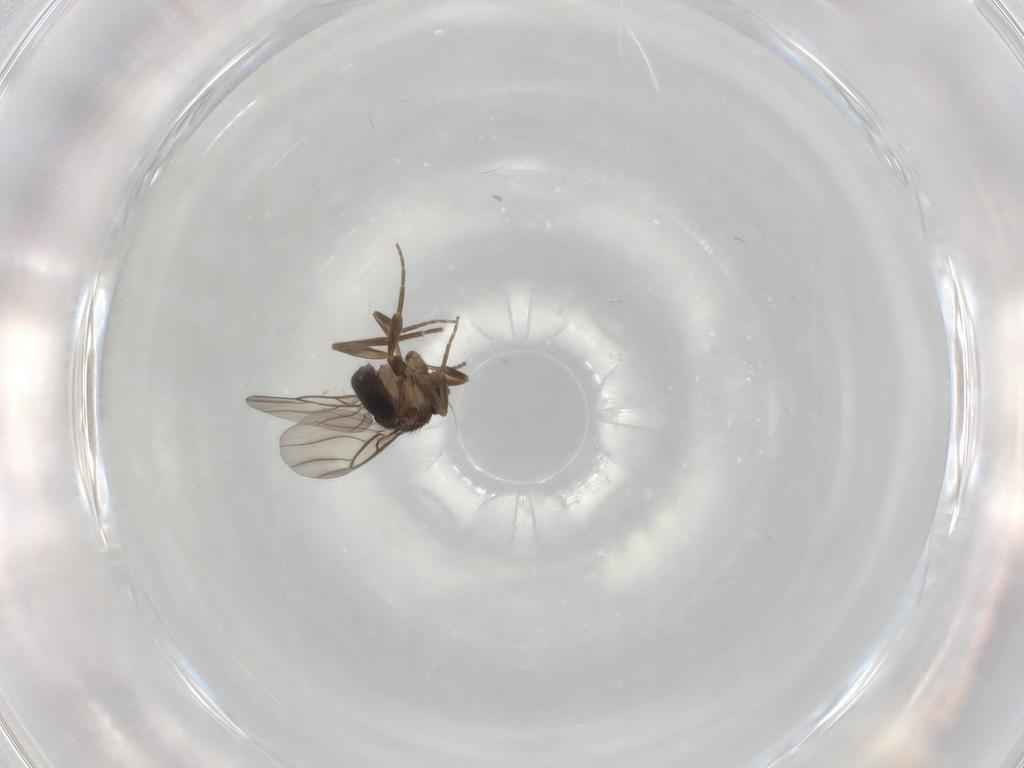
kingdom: Animalia
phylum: Arthropoda
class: Insecta
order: Diptera
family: Phoridae
